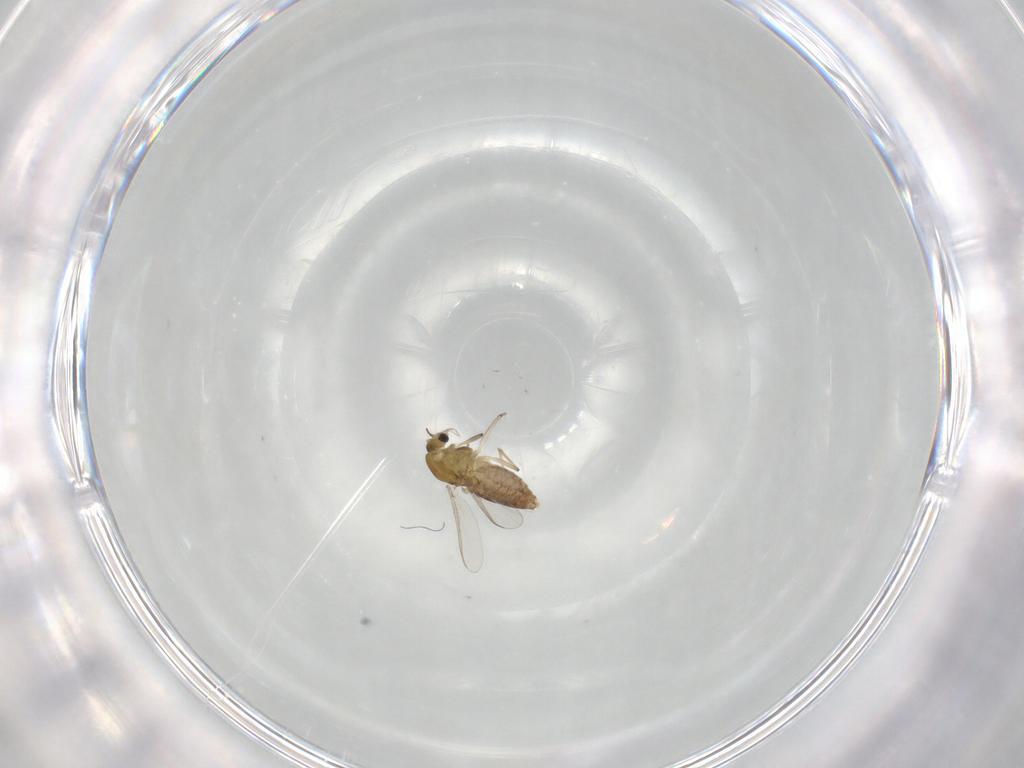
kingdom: Animalia
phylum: Arthropoda
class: Insecta
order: Diptera
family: Chironomidae
